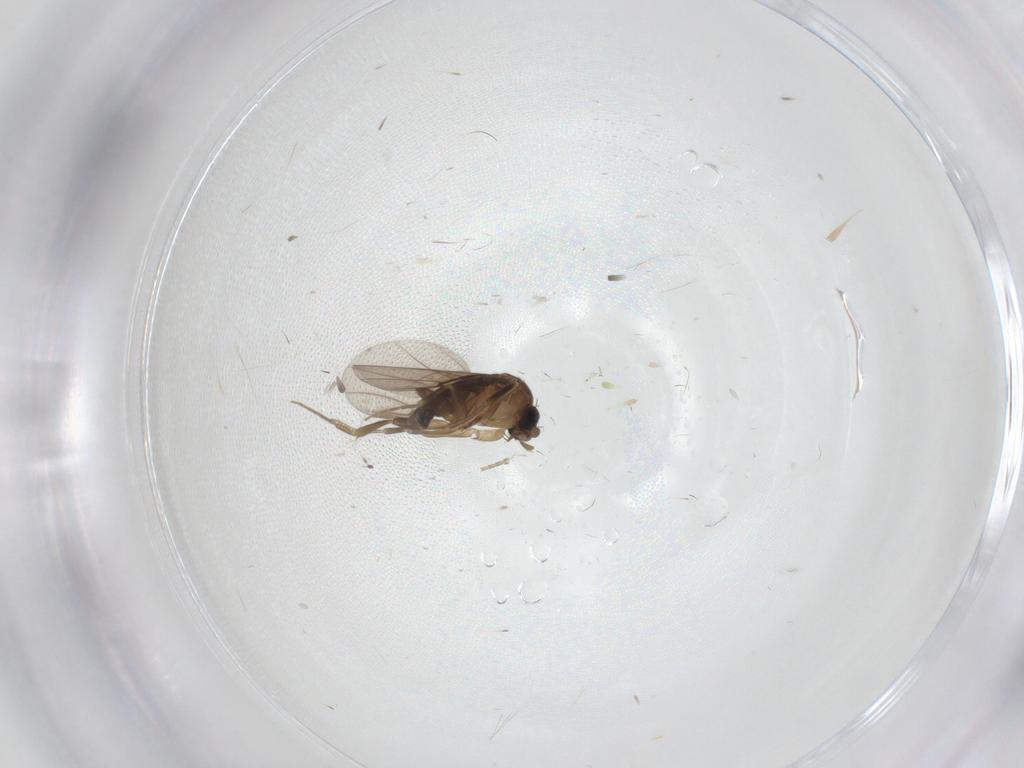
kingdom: Animalia
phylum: Arthropoda
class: Insecta
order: Diptera
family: Phoridae
